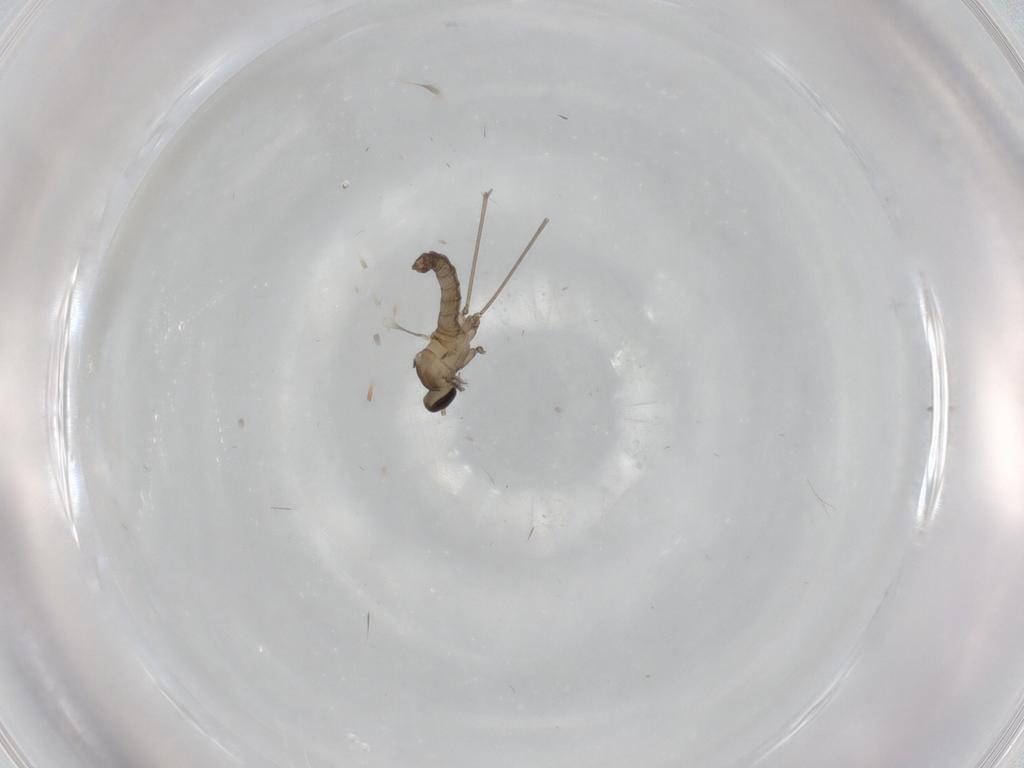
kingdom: Animalia
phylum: Arthropoda
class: Insecta
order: Diptera
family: Cecidomyiidae
